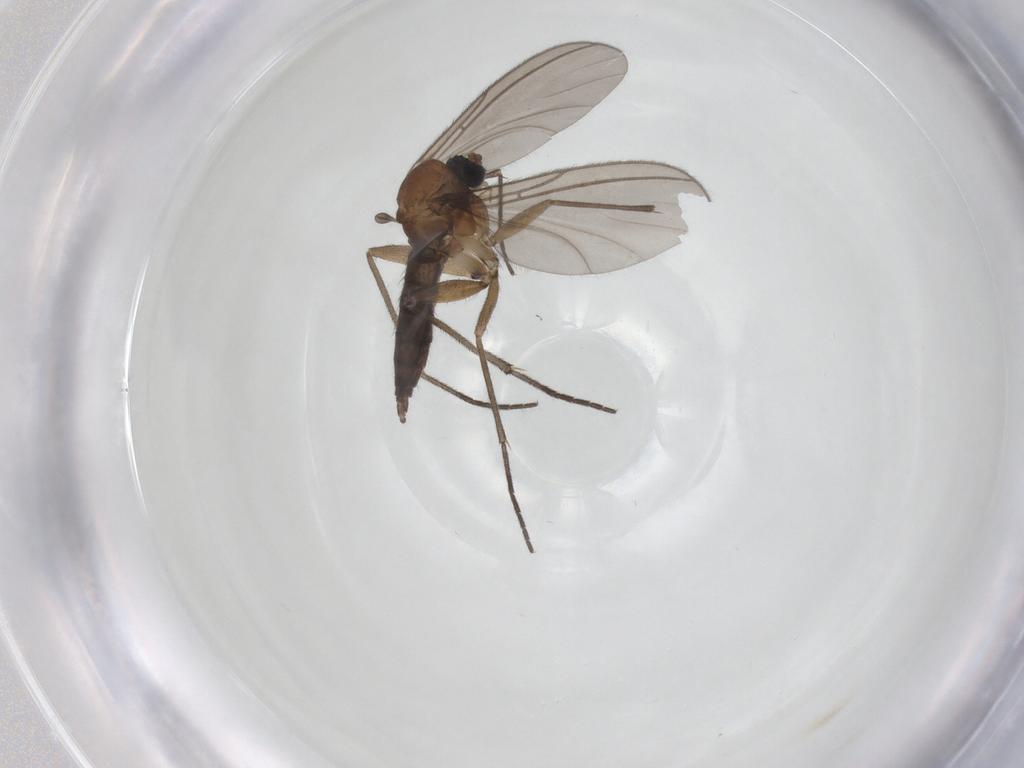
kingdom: Animalia
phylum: Arthropoda
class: Insecta
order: Diptera
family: Sciaridae
